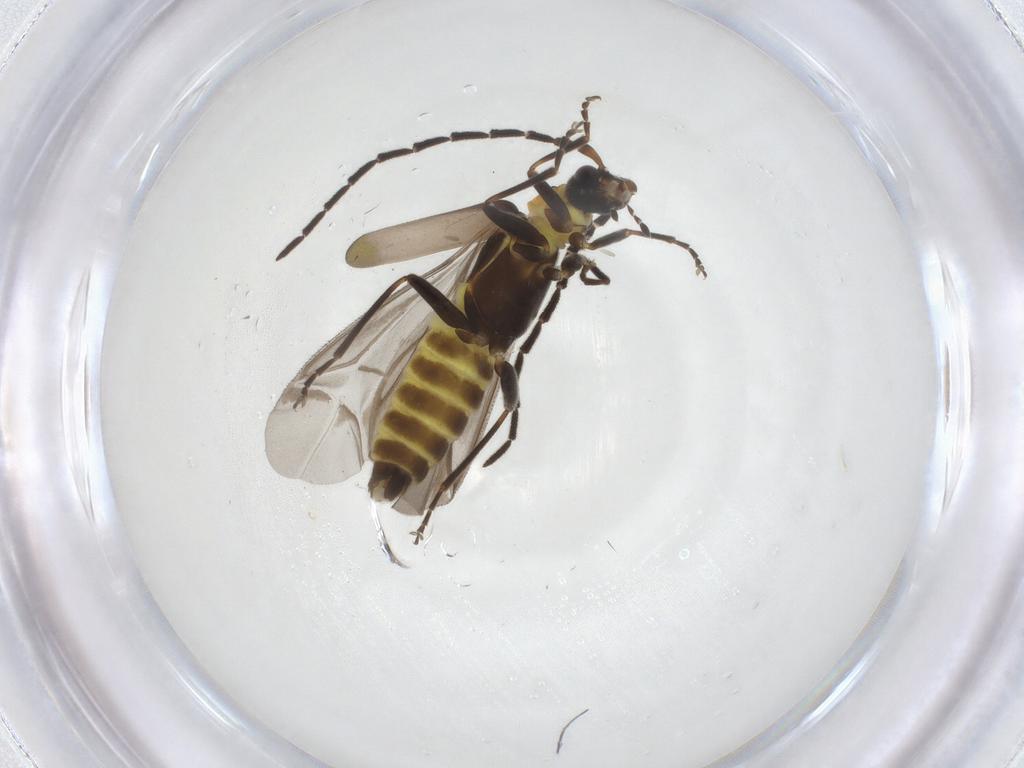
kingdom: Animalia
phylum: Arthropoda
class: Insecta
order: Coleoptera
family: Cantharidae
